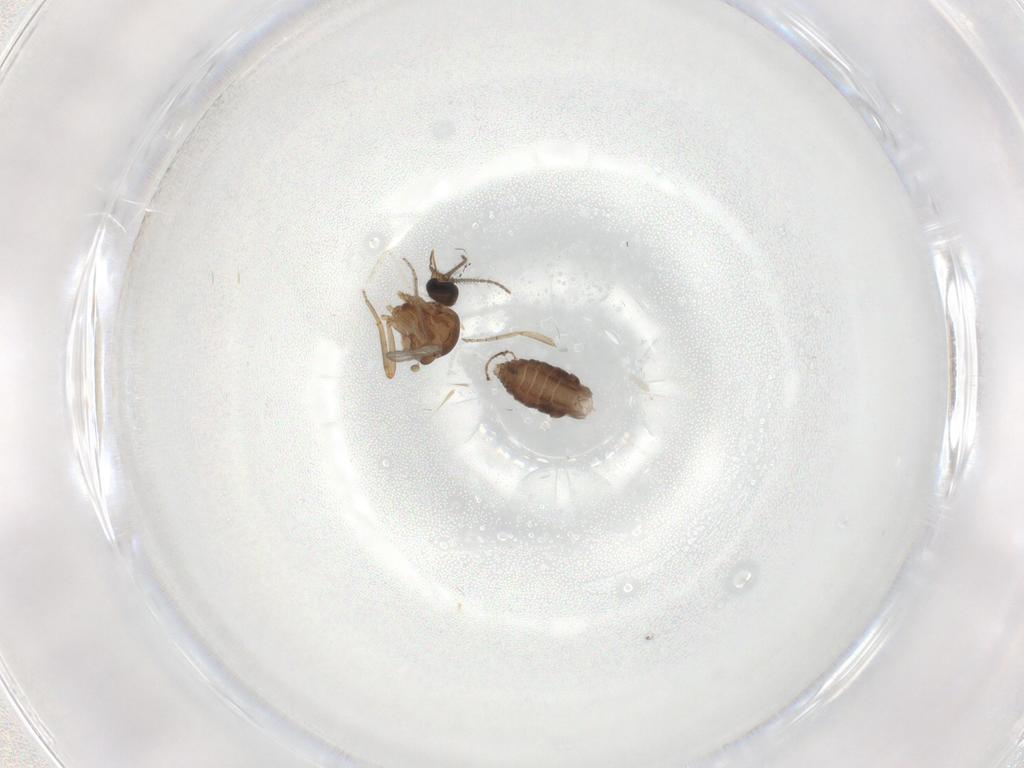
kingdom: Animalia
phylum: Arthropoda
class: Insecta
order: Diptera
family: Ceratopogonidae
